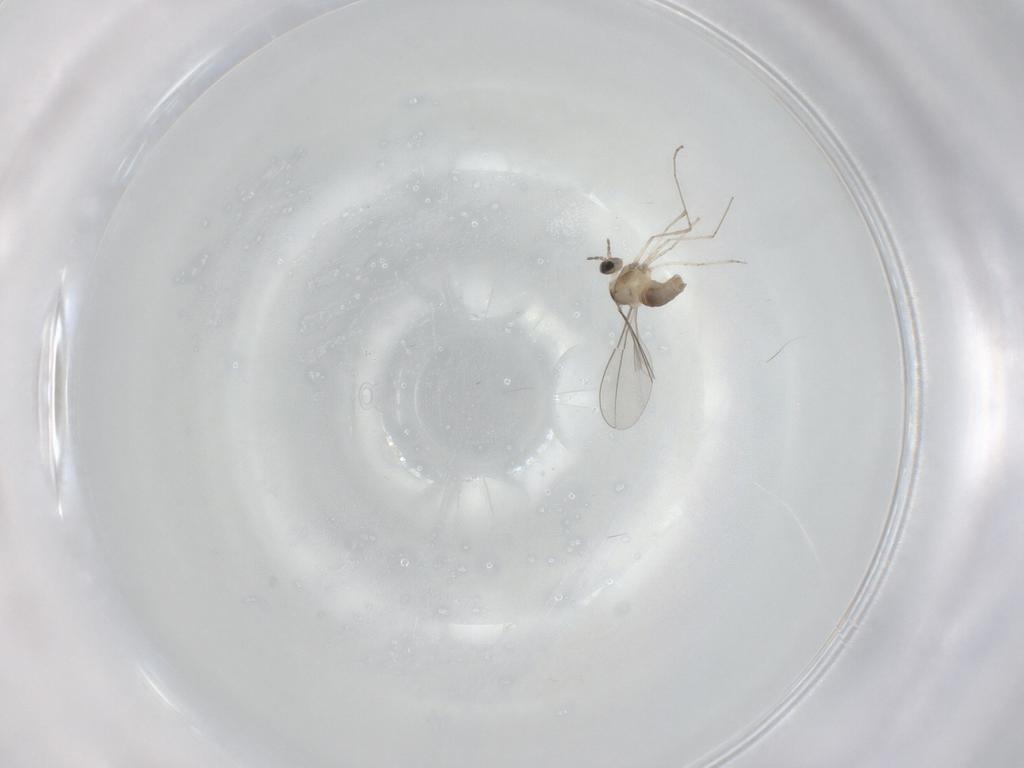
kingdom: Animalia
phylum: Arthropoda
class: Insecta
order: Diptera
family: Cecidomyiidae
